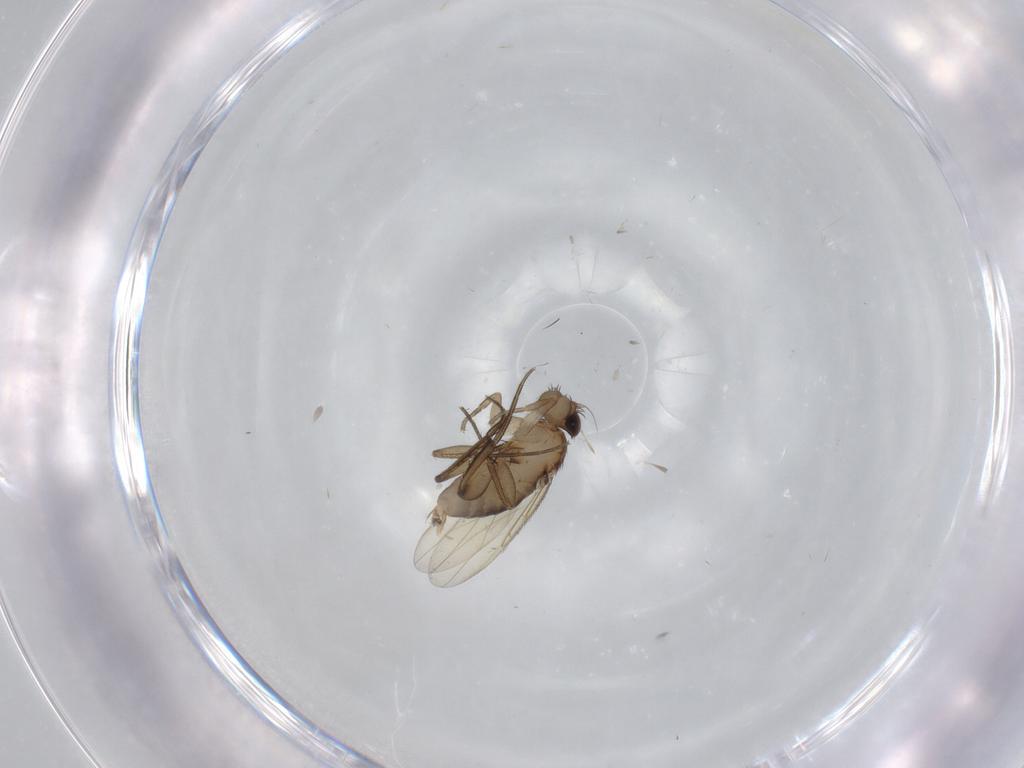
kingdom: Animalia
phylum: Arthropoda
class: Insecta
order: Diptera
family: Phoridae
